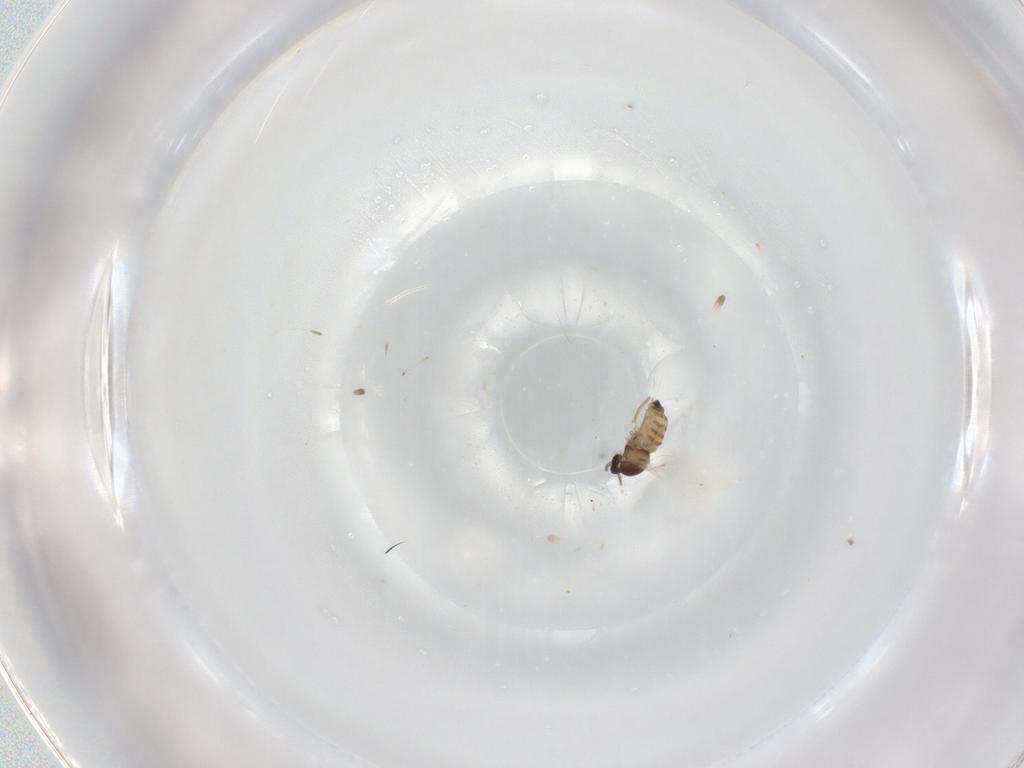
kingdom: Animalia
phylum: Arthropoda
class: Insecta
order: Diptera
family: Cecidomyiidae
